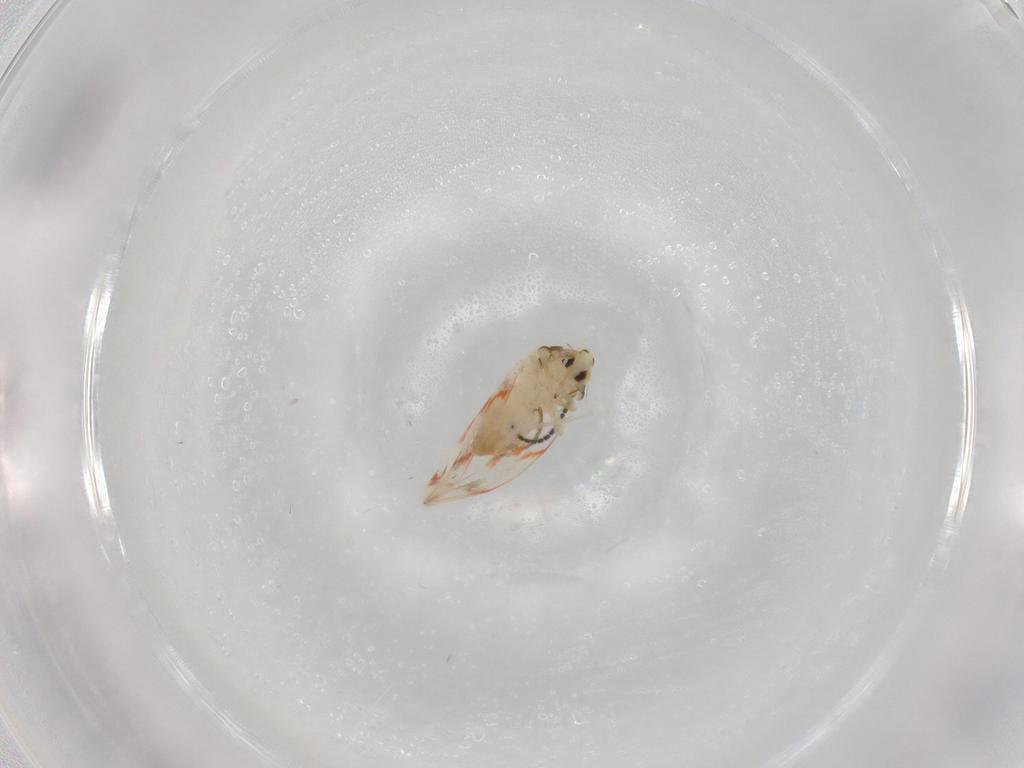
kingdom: Animalia
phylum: Arthropoda
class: Insecta
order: Hemiptera
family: Aleyrodidae
